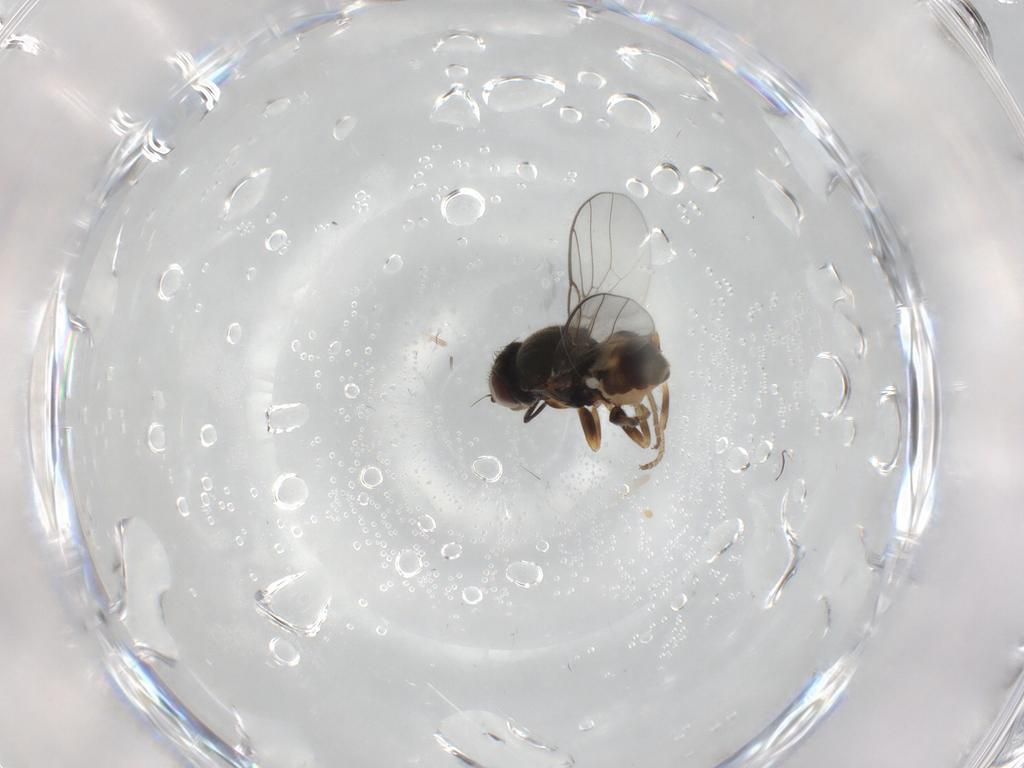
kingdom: Animalia
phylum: Arthropoda
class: Insecta
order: Diptera
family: Chloropidae
